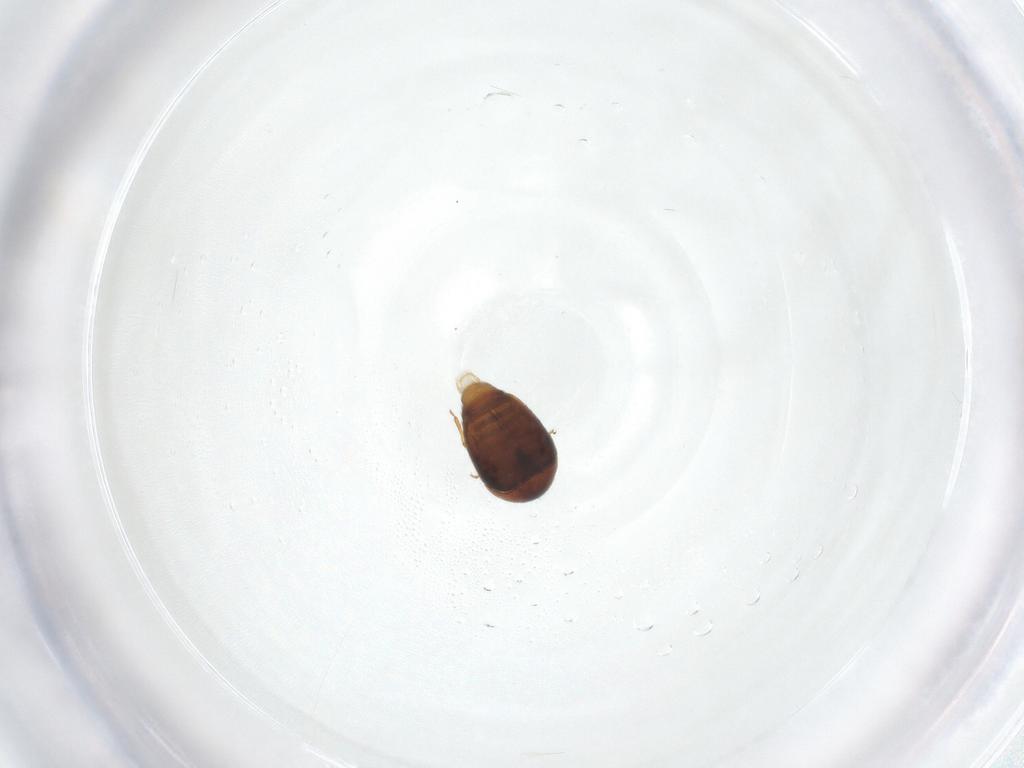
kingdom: Animalia
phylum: Arthropoda
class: Insecta
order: Coleoptera
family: Corylophidae
